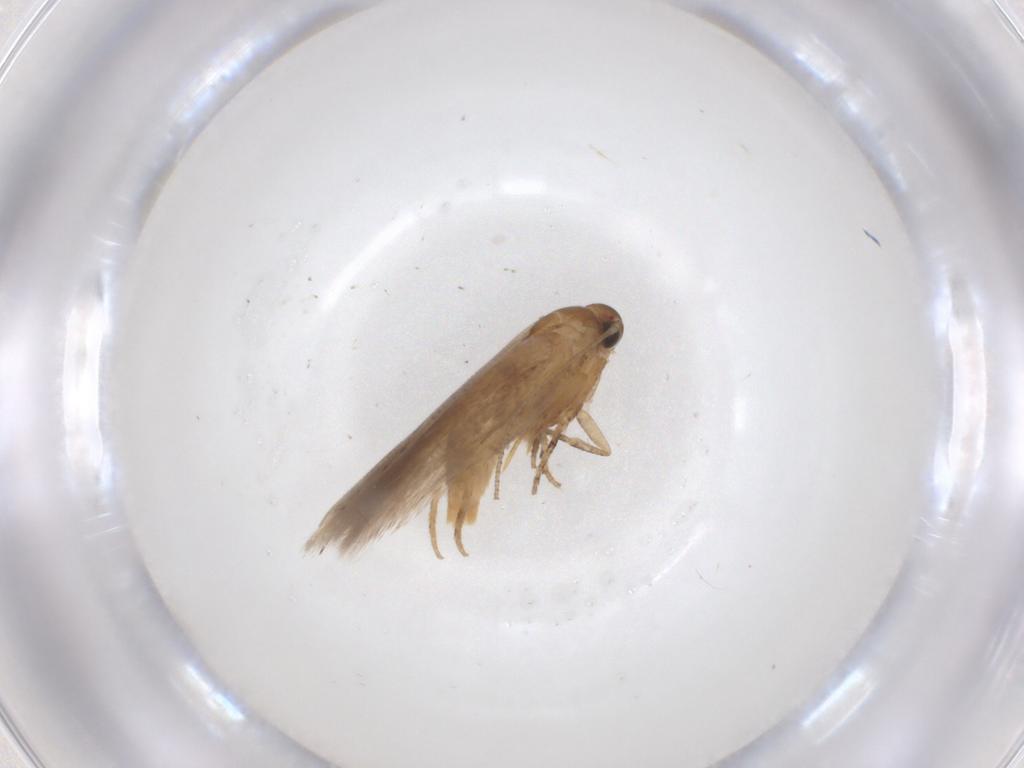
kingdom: Animalia
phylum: Arthropoda
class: Insecta
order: Lepidoptera
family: Gelechiidae
